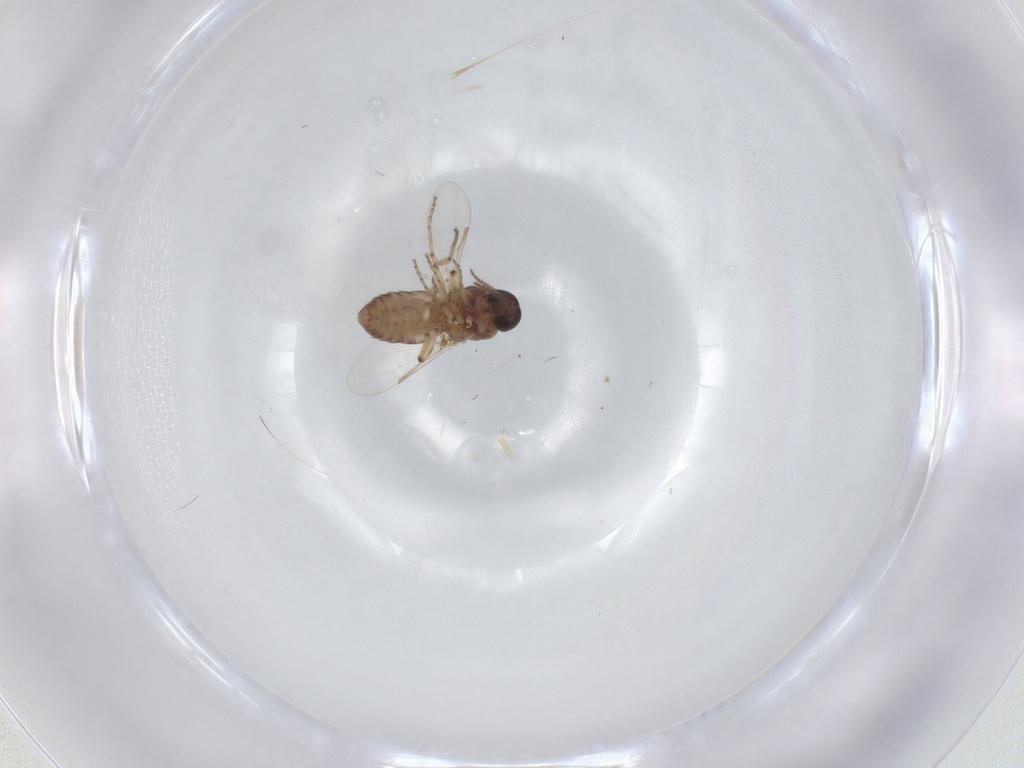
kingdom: Animalia
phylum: Arthropoda
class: Insecta
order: Diptera
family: Ceratopogonidae
